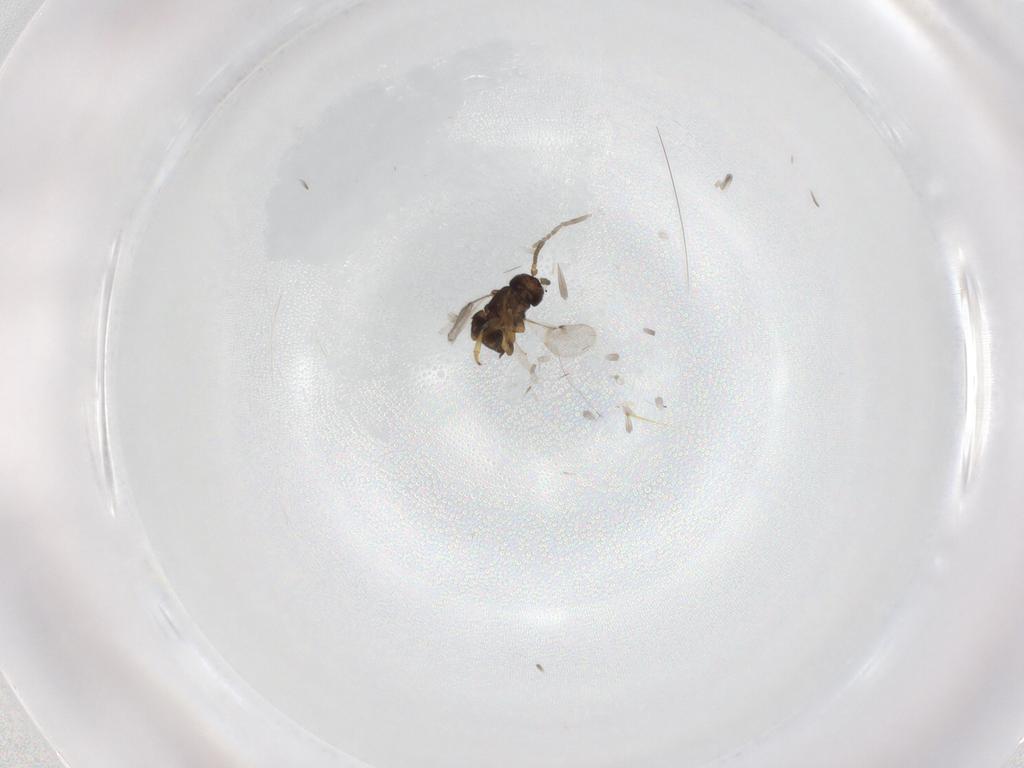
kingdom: Animalia
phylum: Arthropoda
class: Insecta
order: Diptera
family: Psychodidae
